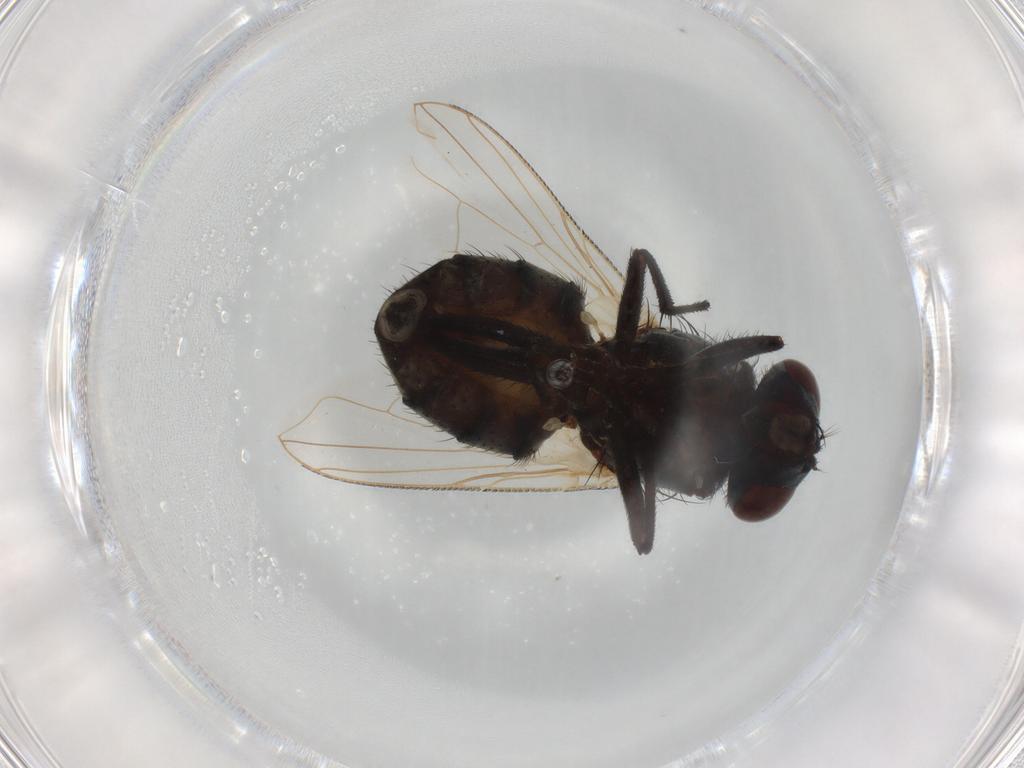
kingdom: Animalia
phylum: Arthropoda
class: Insecta
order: Diptera
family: Muscidae
